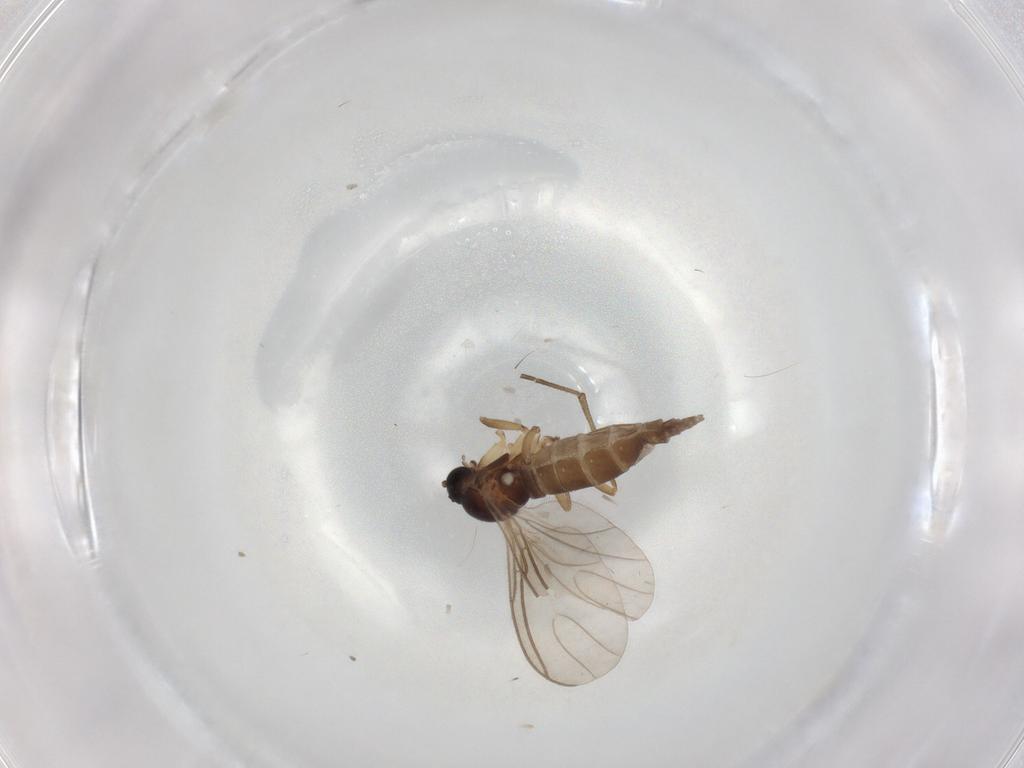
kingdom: Animalia
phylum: Arthropoda
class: Insecta
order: Diptera
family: Sciaridae
